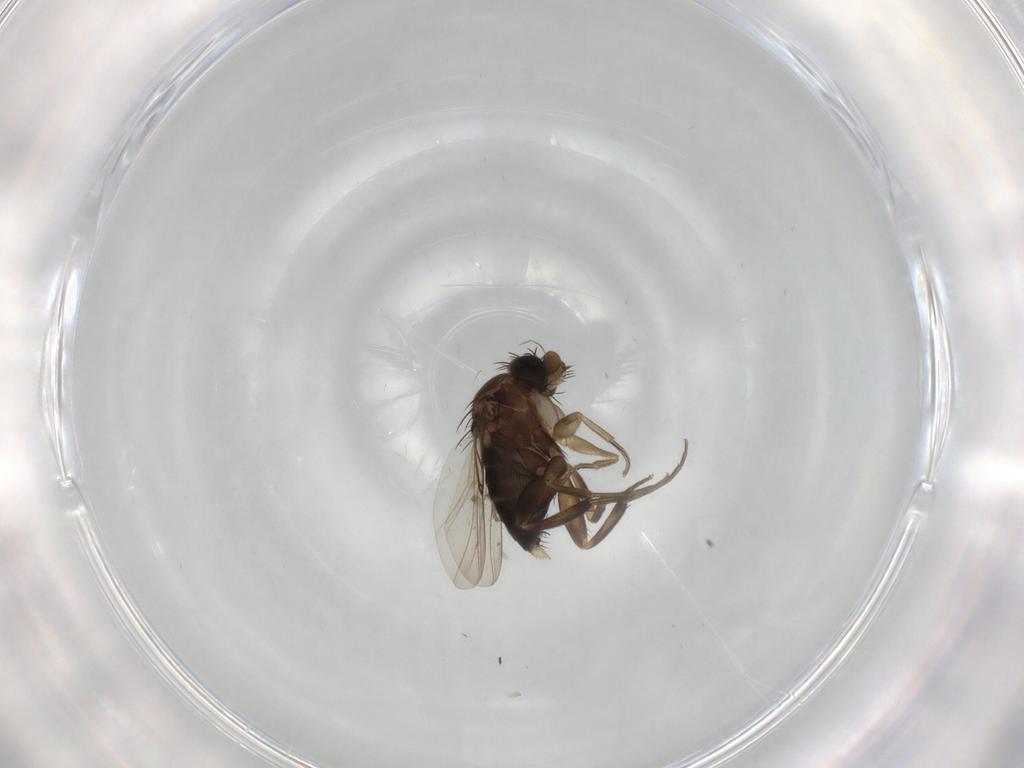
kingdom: Animalia
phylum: Arthropoda
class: Insecta
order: Diptera
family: Phoridae
